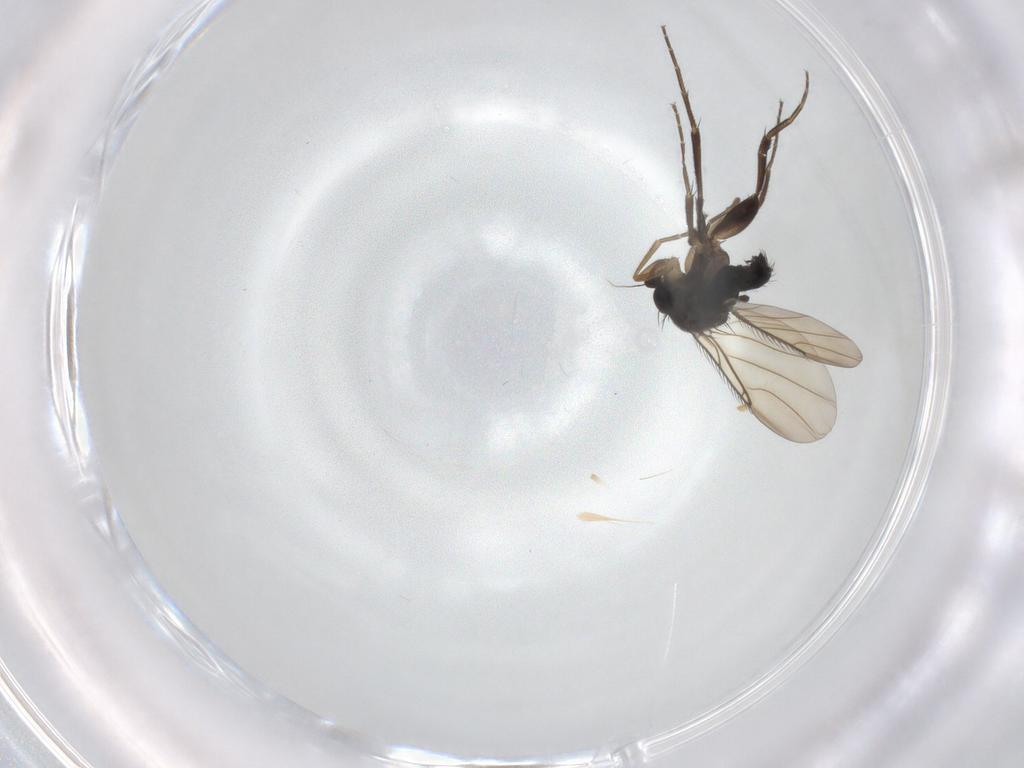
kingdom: Animalia
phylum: Arthropoda
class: Insecta
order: Diptera
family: Phoridae
